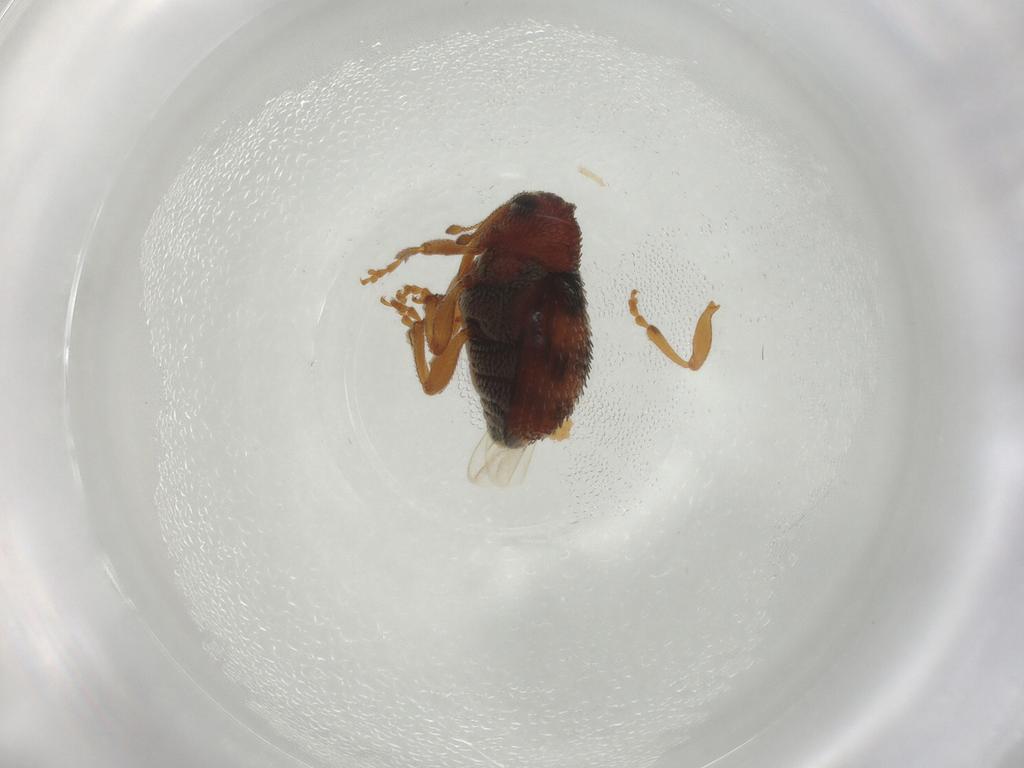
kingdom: Animalia
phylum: Arthropoda
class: Insecta
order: Coleoptera
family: Curculionidae
